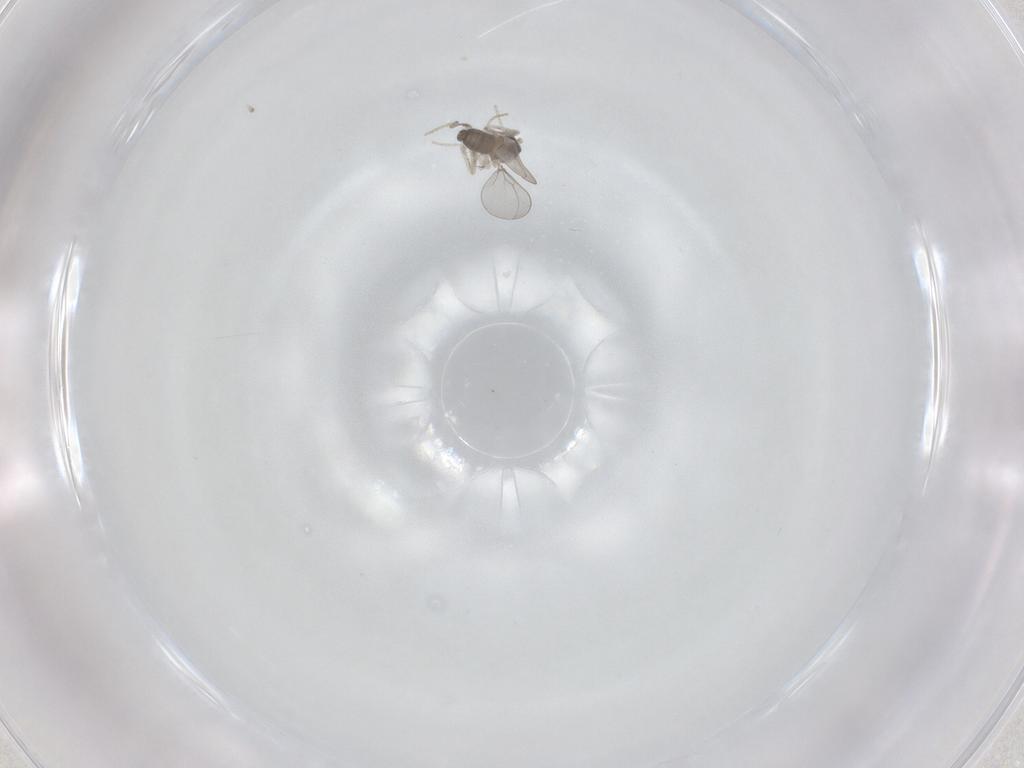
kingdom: Animalia
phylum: Arthropoda
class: Insecta
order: Diptera
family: Cecidomyiidae
